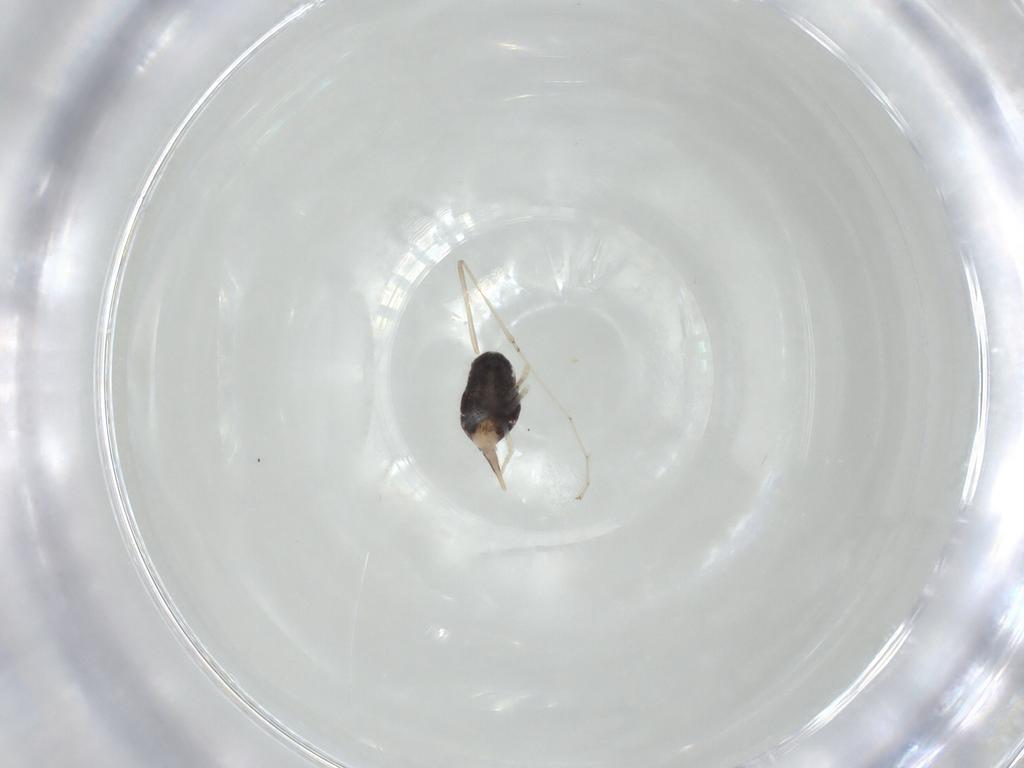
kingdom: Animalia
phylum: Arthropoda
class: Arachnida
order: Trombidiformes
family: Bdellidae
